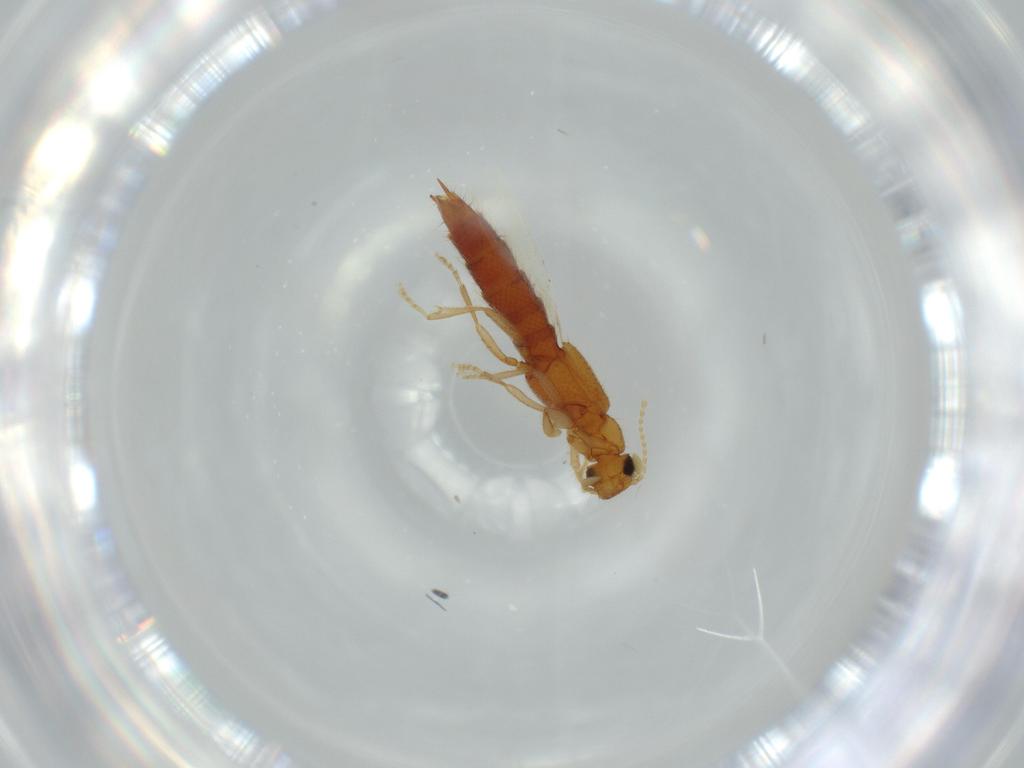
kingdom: Animalia
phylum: Arthropoda
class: Insecta
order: Coleoptera
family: Staphylinidae
